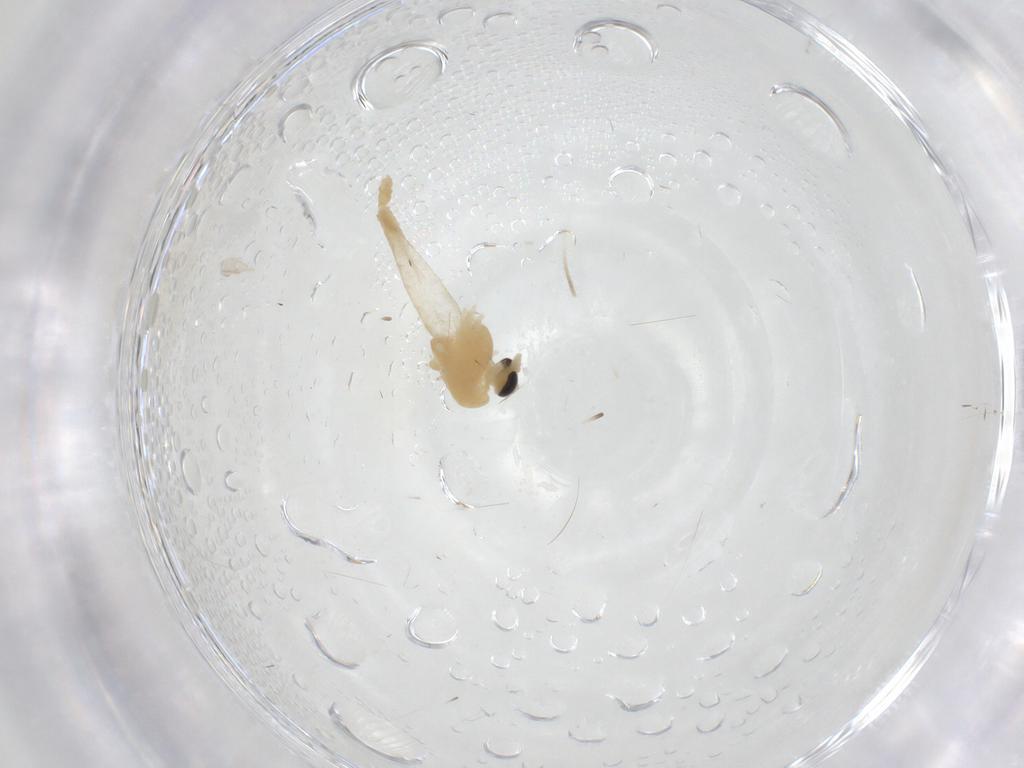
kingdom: Animalia
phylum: Arthropoda
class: Insecta
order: Diptera
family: Chironomidae
